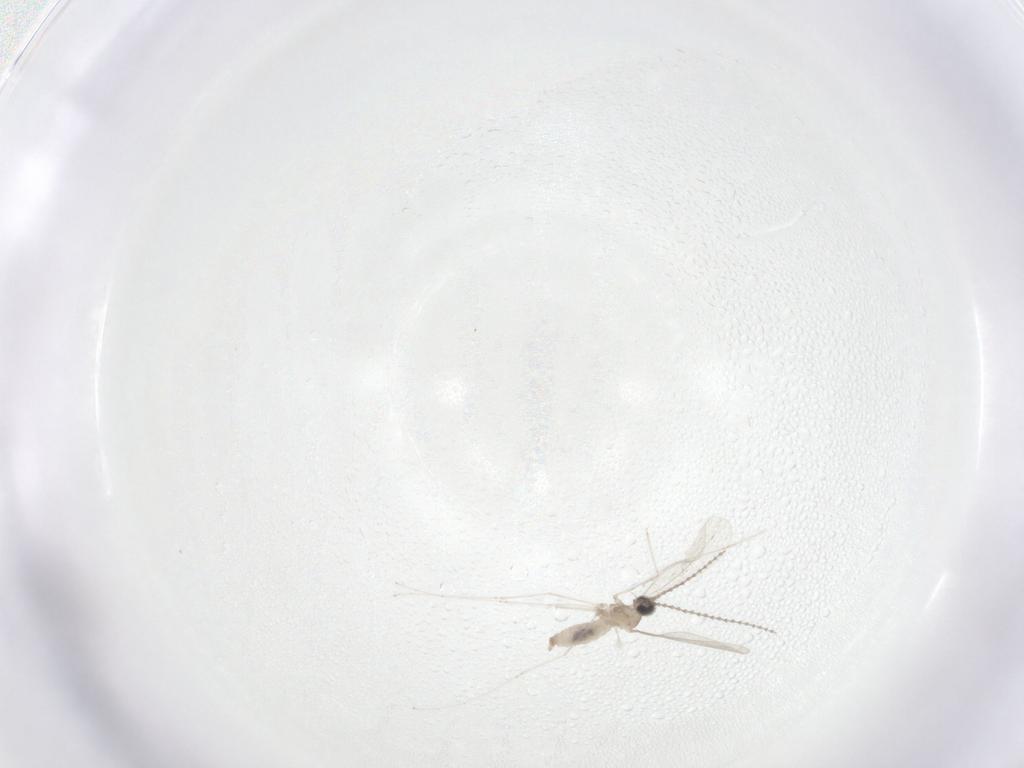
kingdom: Animalia
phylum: Arthropoda
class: Insecta
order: Diptera
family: Cecidomyiidae
